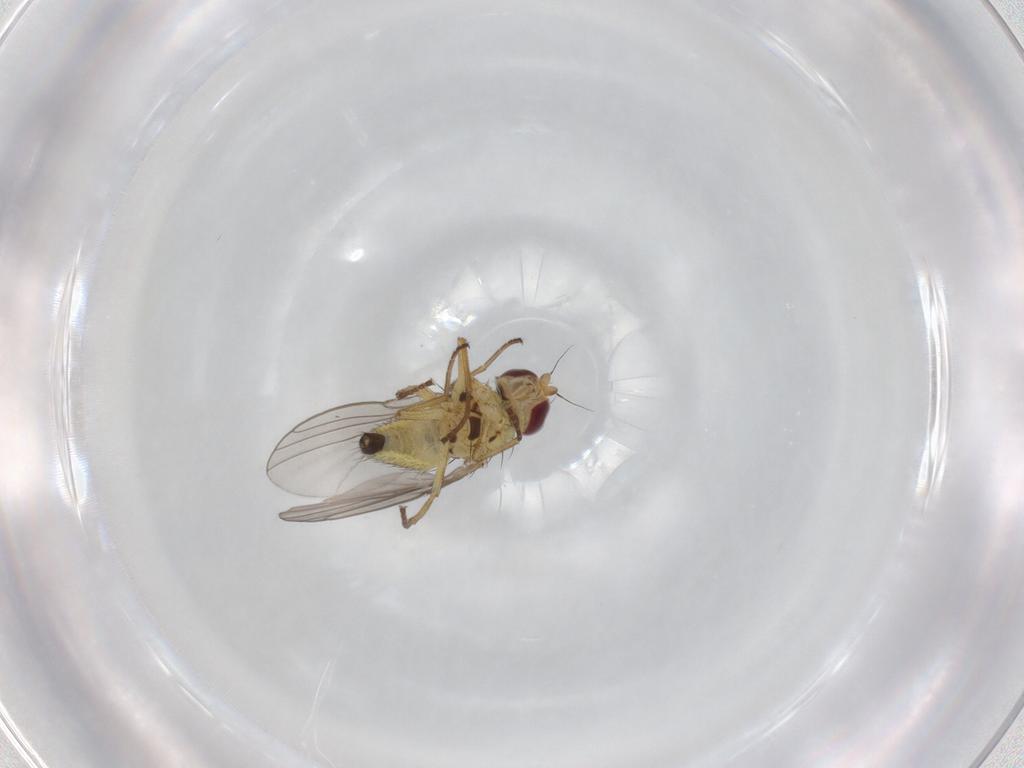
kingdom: Animalia
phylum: Arthropoda
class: Insecta
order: Diptera
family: Agromyzidae
